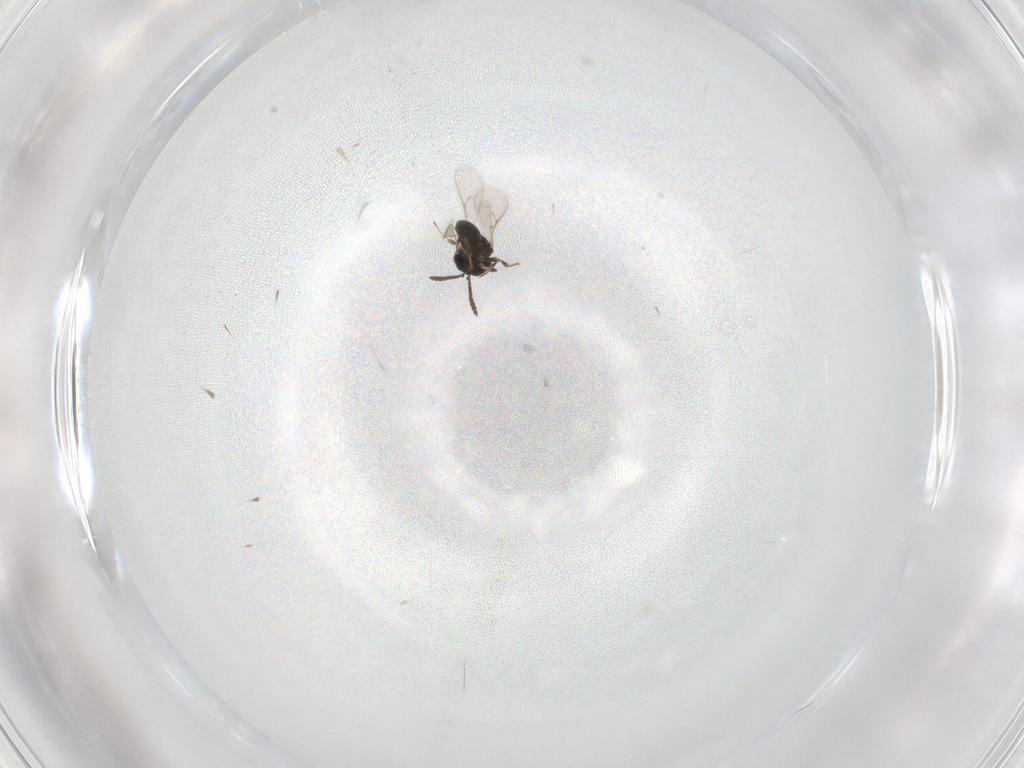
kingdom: Animalia
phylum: Arthropoda
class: Insecta
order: Hymenoptera
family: Scelionidae
